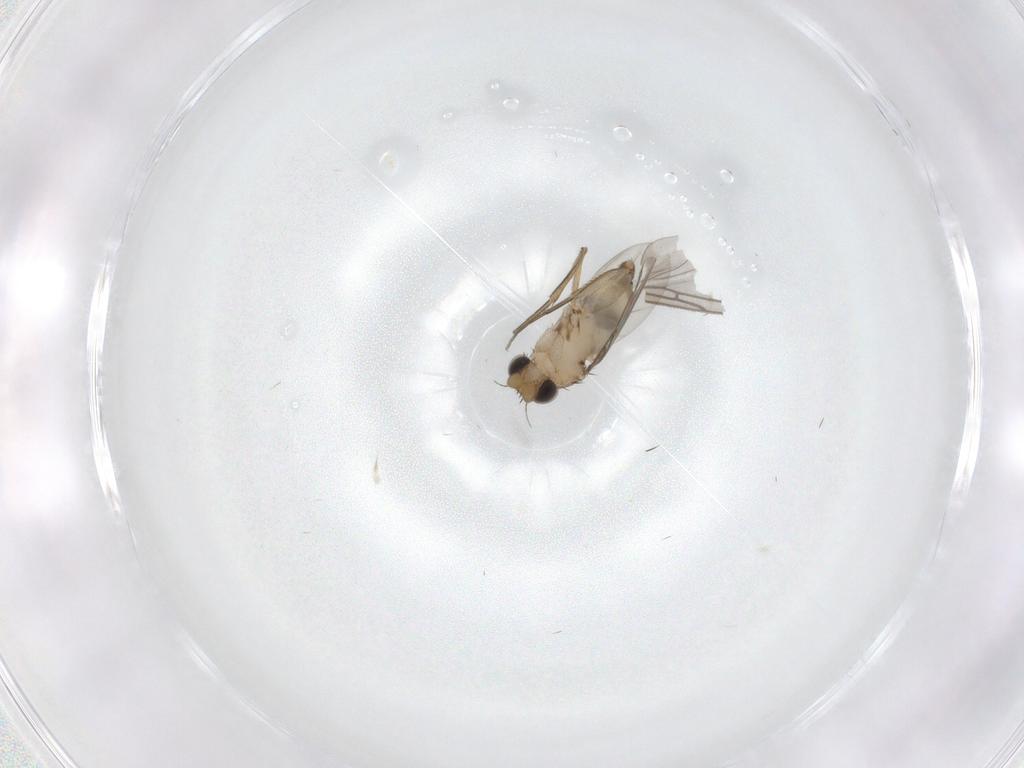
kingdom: Animalia
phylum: Arthropoda
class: Insecta
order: Diptera
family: Phoridae
